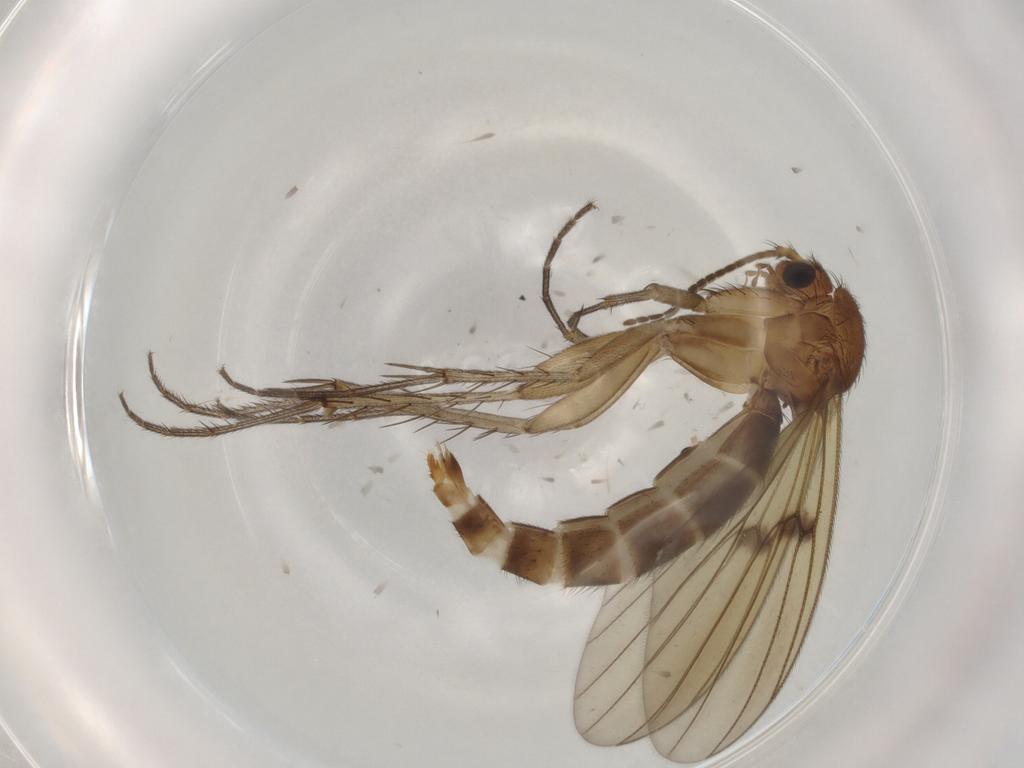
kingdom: Animalia
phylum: Arthropoda
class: Insecta
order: Diptera
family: Mycetophilidae
